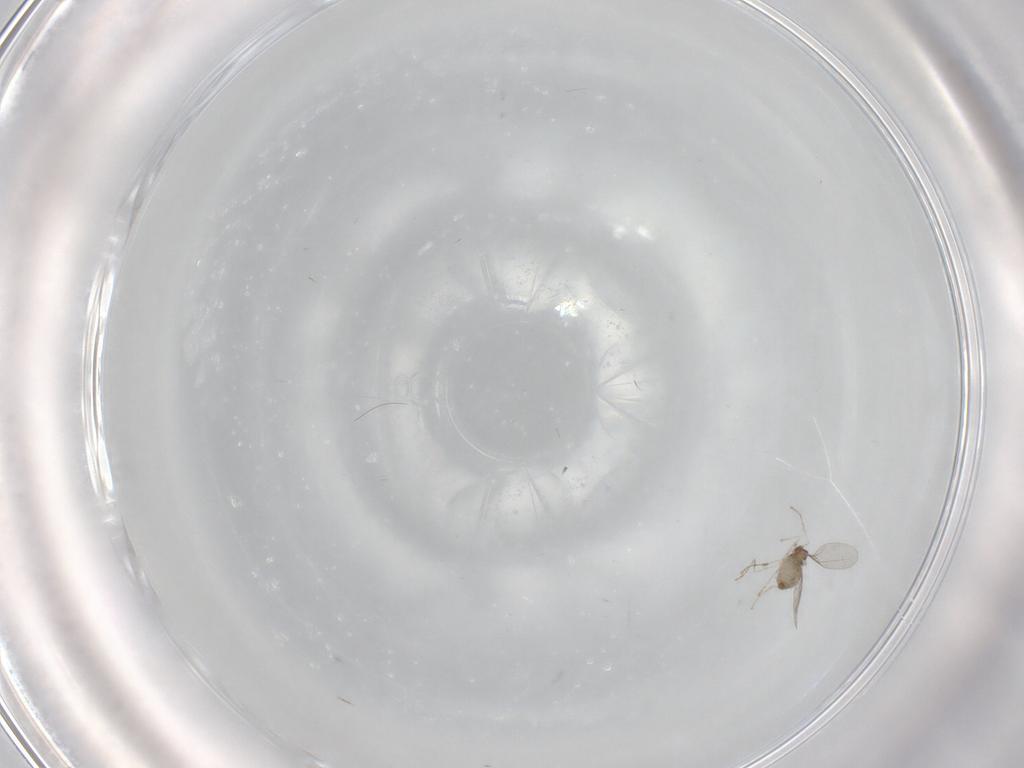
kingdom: Animalia
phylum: Arthropoda
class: Insecta
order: Diptera
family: Cecidomyiidae
